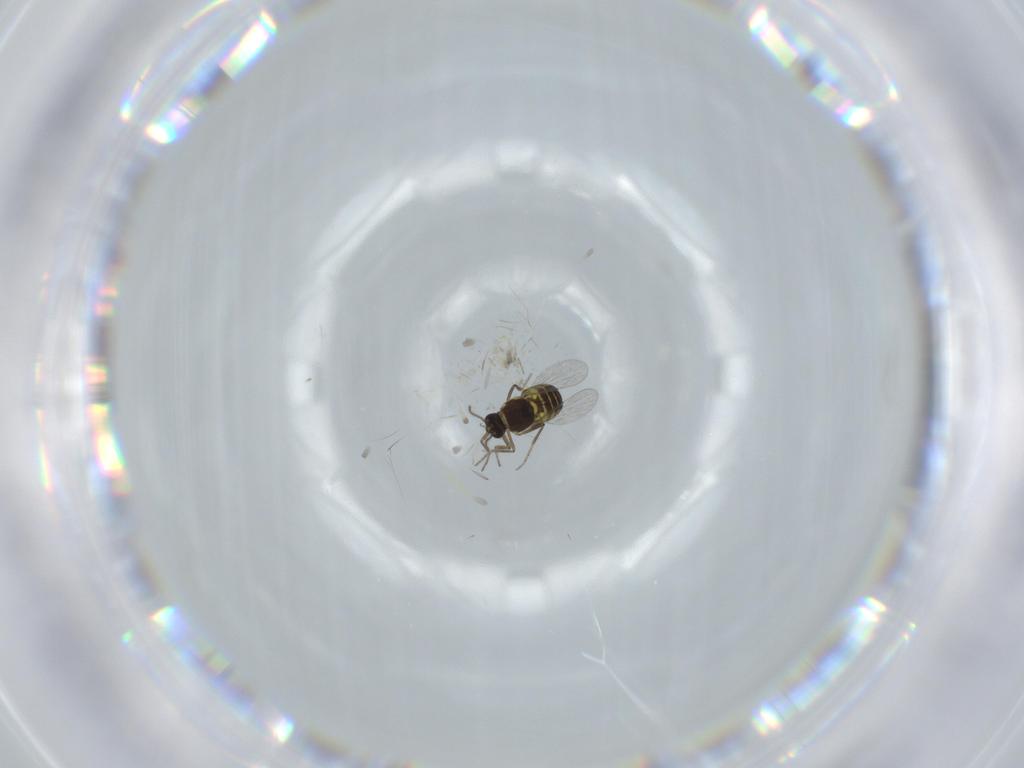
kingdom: Animalia
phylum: Arthropoda
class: Insecta
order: Diptera
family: Ceratopogonidae
